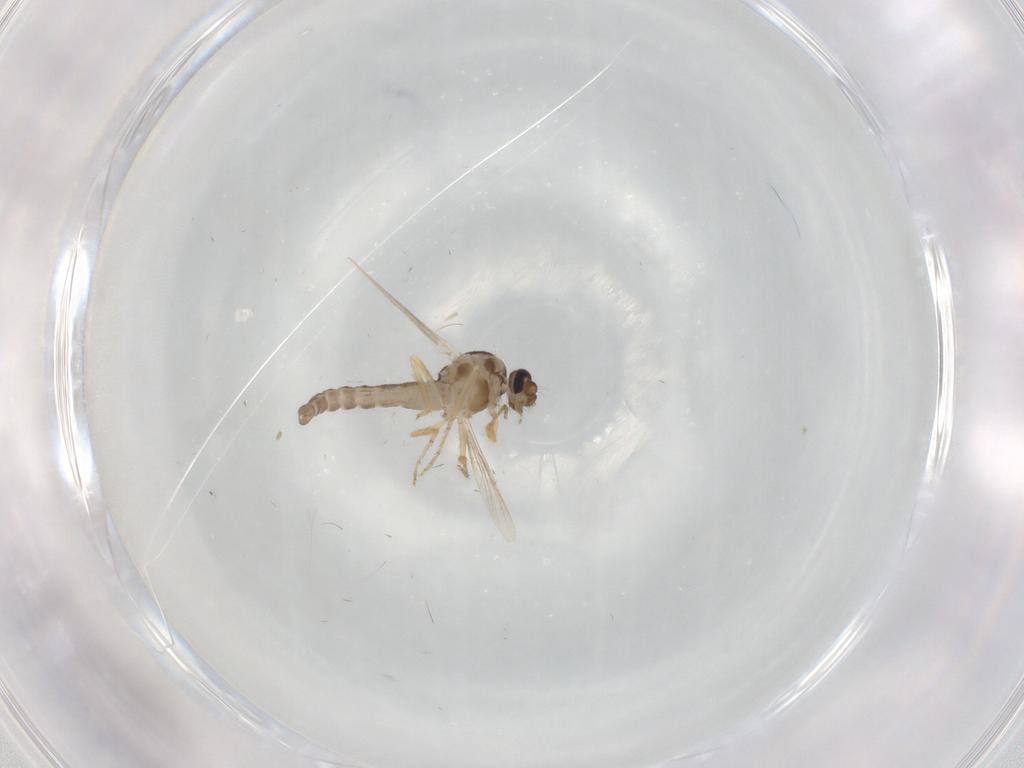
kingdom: Animalia
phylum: Arthropoda
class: Insecta
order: Diptera
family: Ceratopogonidae
